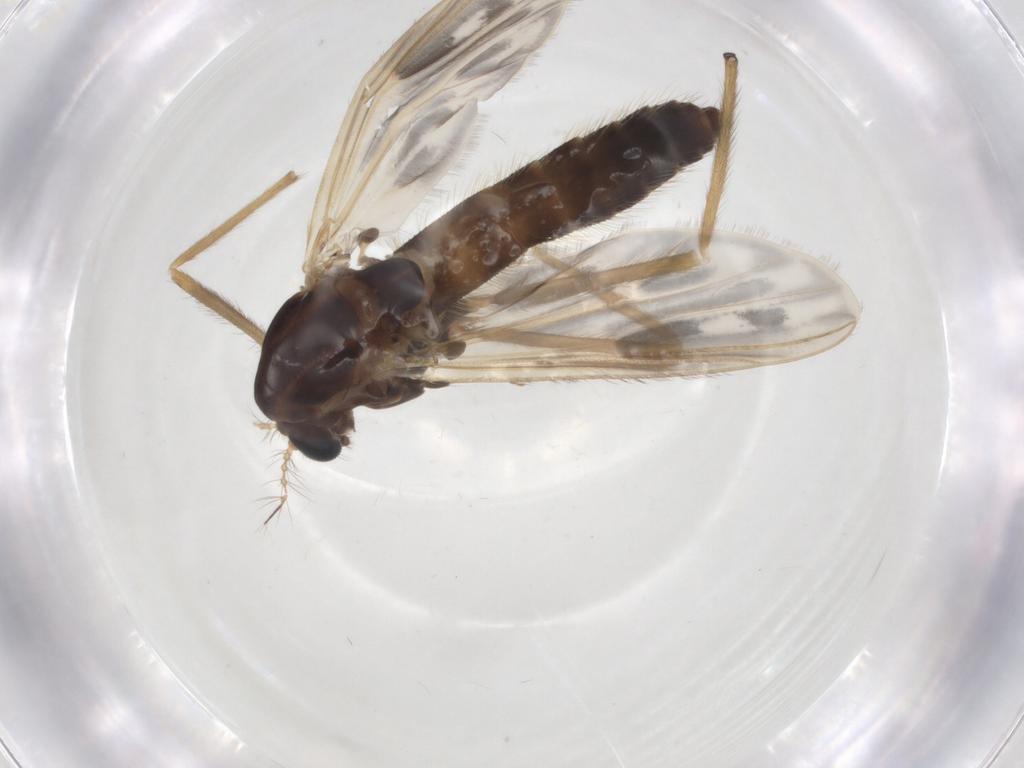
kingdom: Animalia
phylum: Arthropoda
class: Insecta
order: Diptera
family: Chironomidae
